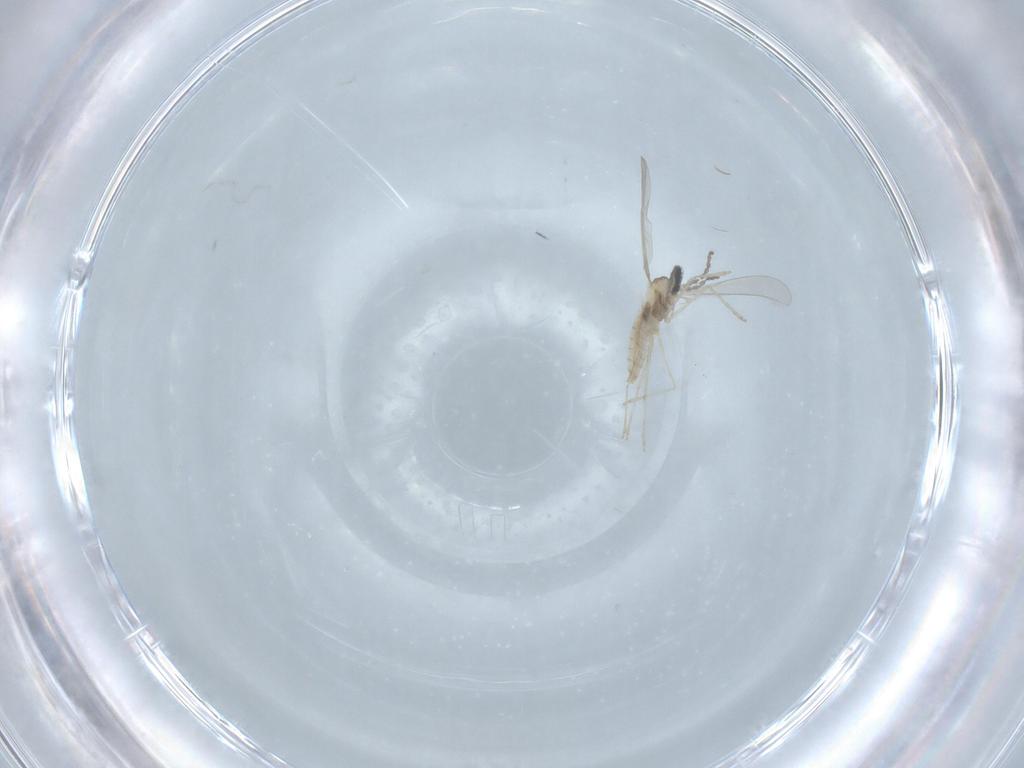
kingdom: Animalia
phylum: Arthropoda
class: Insecta
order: Diptera
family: Cecidomyiidae
